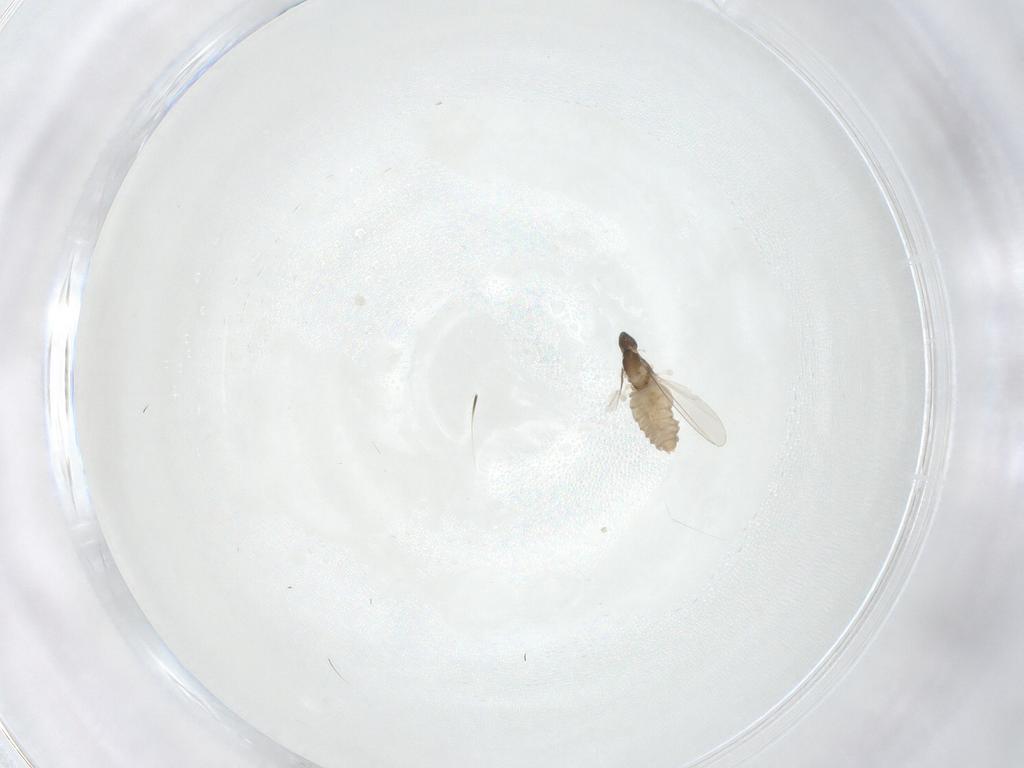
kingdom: Animalia
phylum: Arthropoda
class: Insecta
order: Diptera
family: Cecidomyiidae
